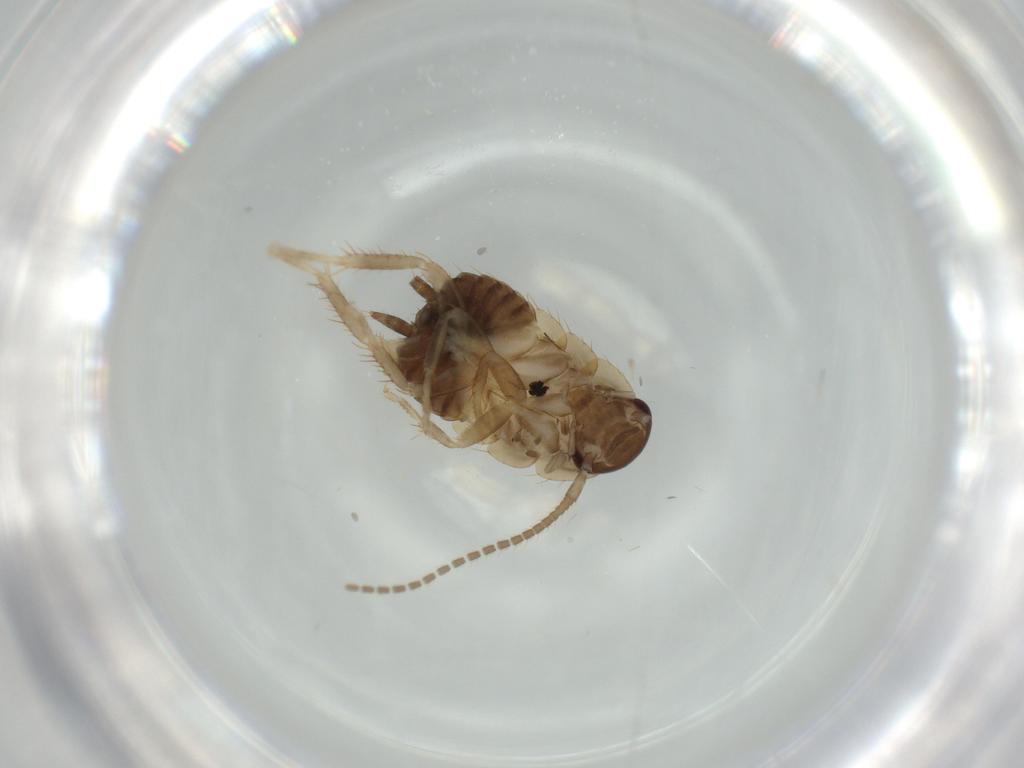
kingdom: Animalia
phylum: Arthropoda
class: Insecta
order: Blattodea
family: Ectobiidae
